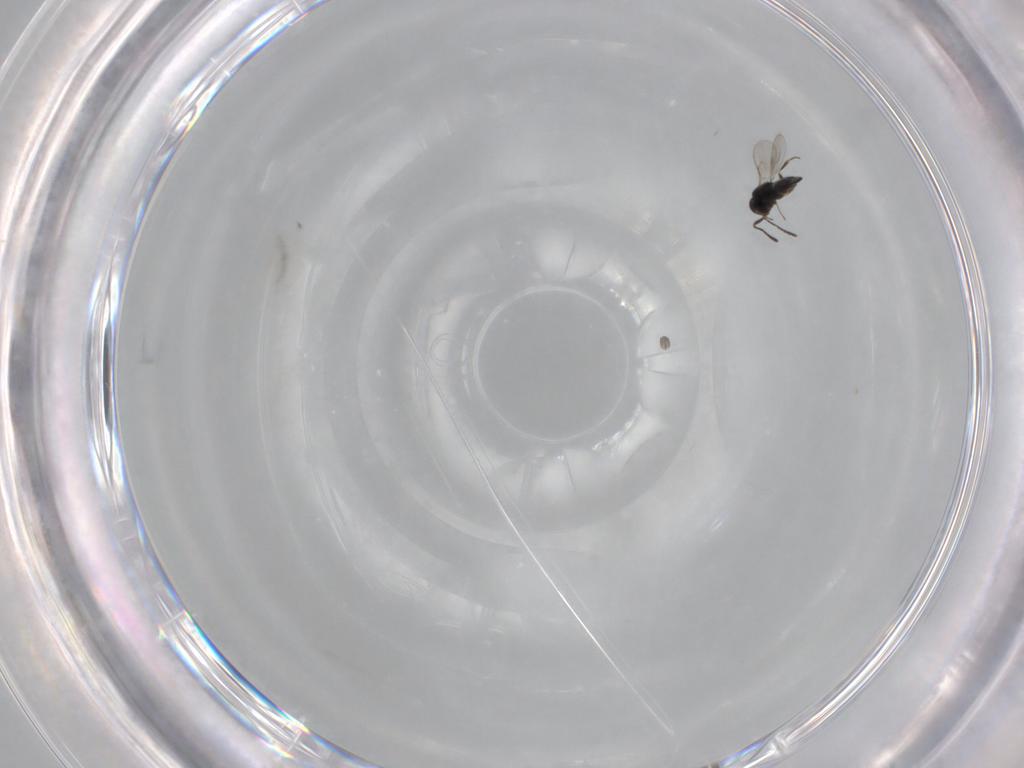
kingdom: Animalia
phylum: Arthropoda
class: Insecta
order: Hymenoptera
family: Scelionidae
